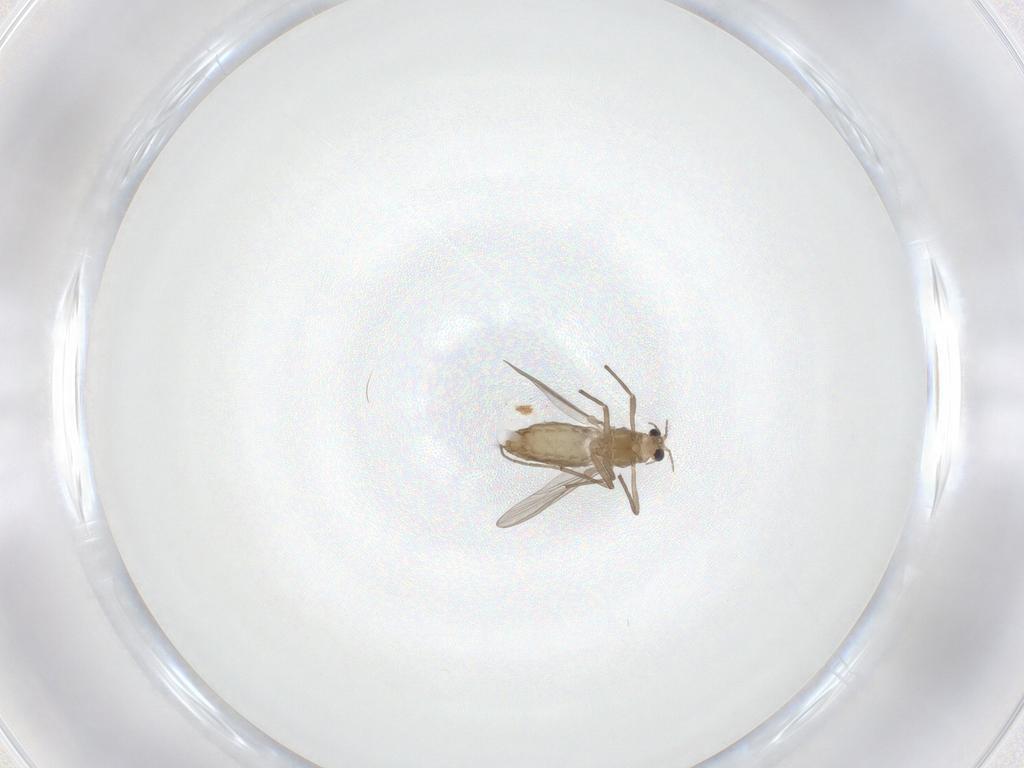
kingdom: Animalia
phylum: Arthropoda
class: Insecta
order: Diptera
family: Chironomidae
